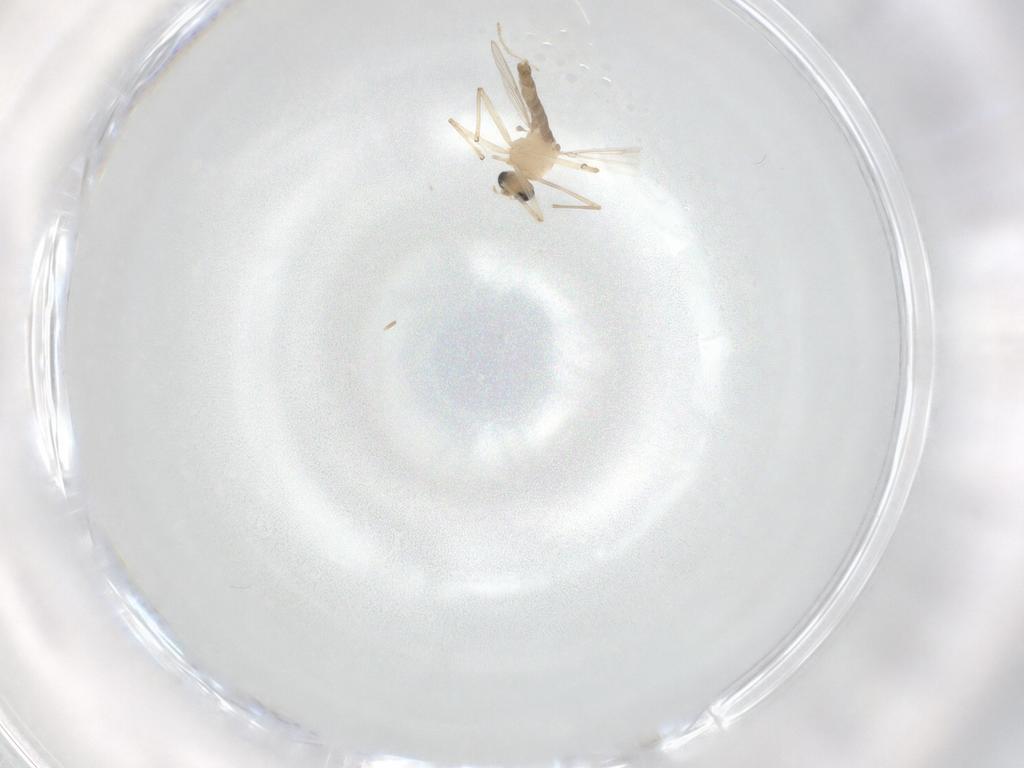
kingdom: Animalia
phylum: Arthropoda
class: Insecta
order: Diptera
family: Chironomidae
